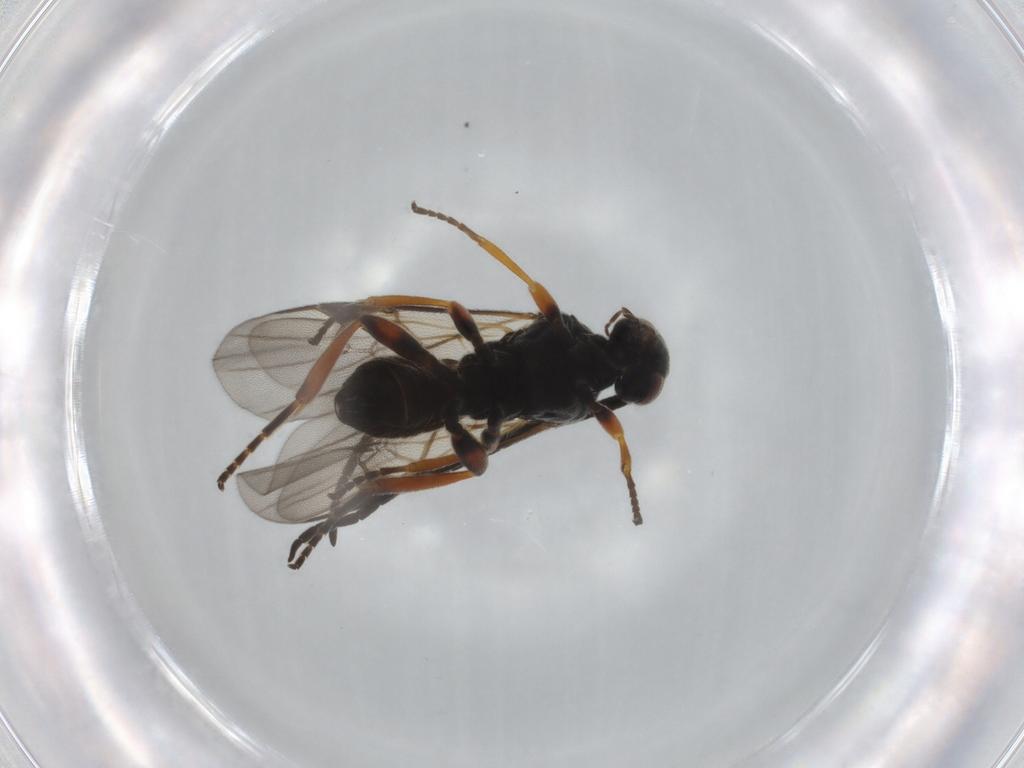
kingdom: Animalia
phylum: Arthropoda
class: Insecta
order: Hymenoptera
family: Braconidae
